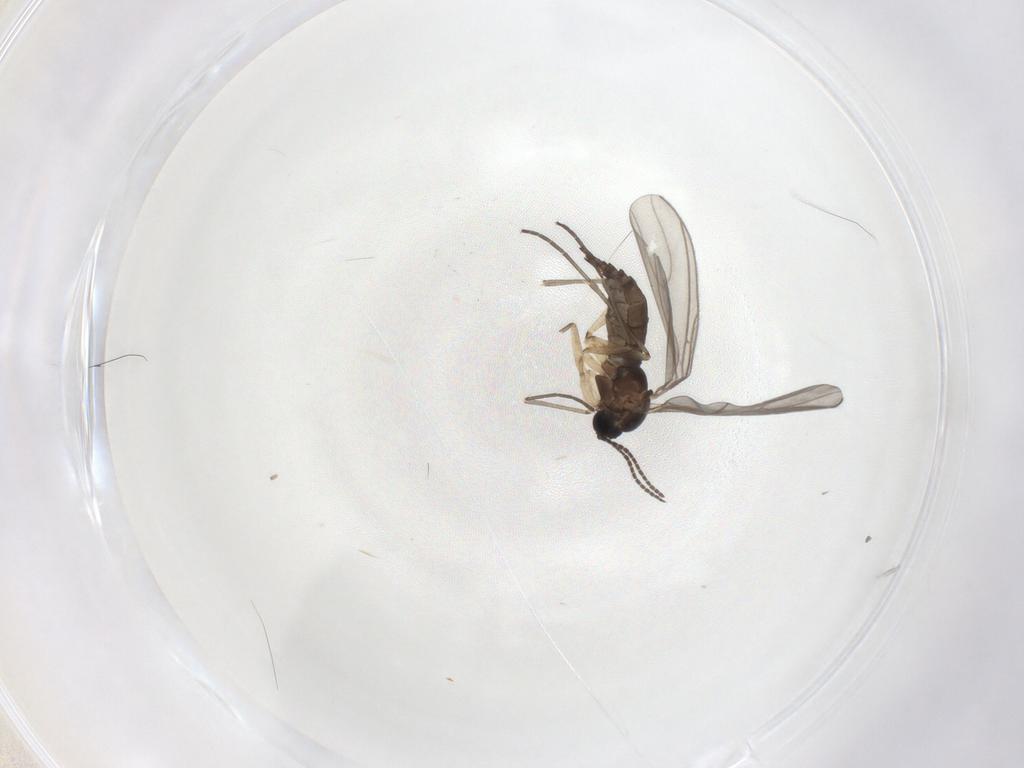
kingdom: Animalia
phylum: Arthropoda
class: Insecta
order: Diptera
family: Sciaridae
